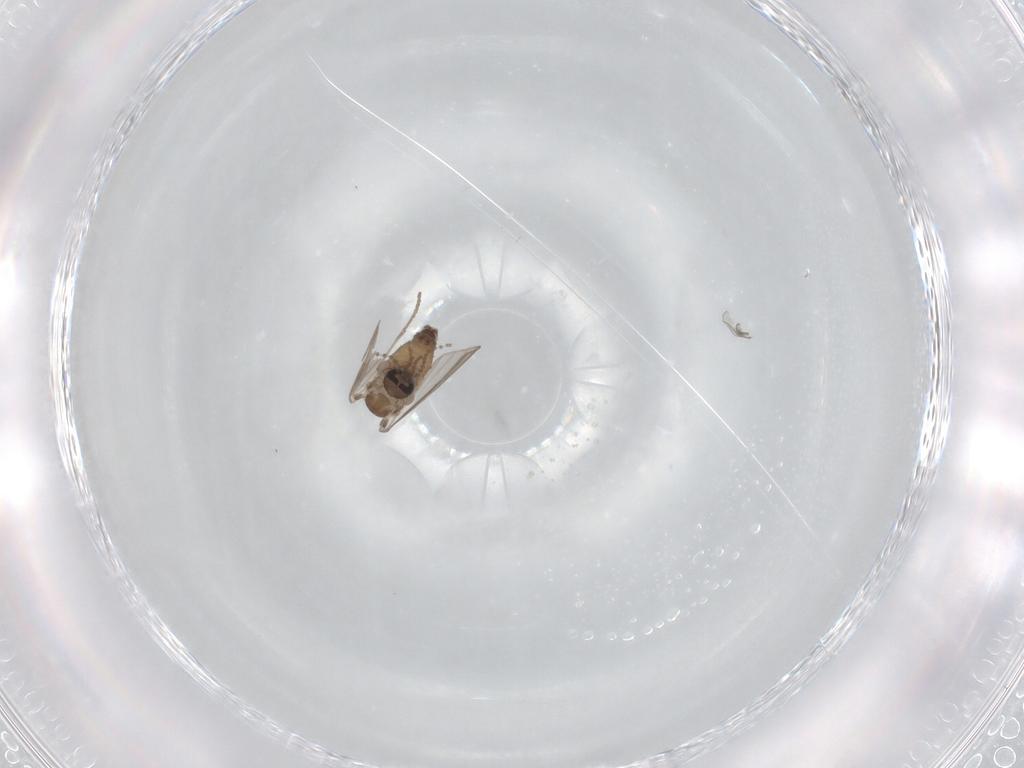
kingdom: Animalia
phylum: Arthropoda
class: Insecta
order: Diptera
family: Psychodidae
